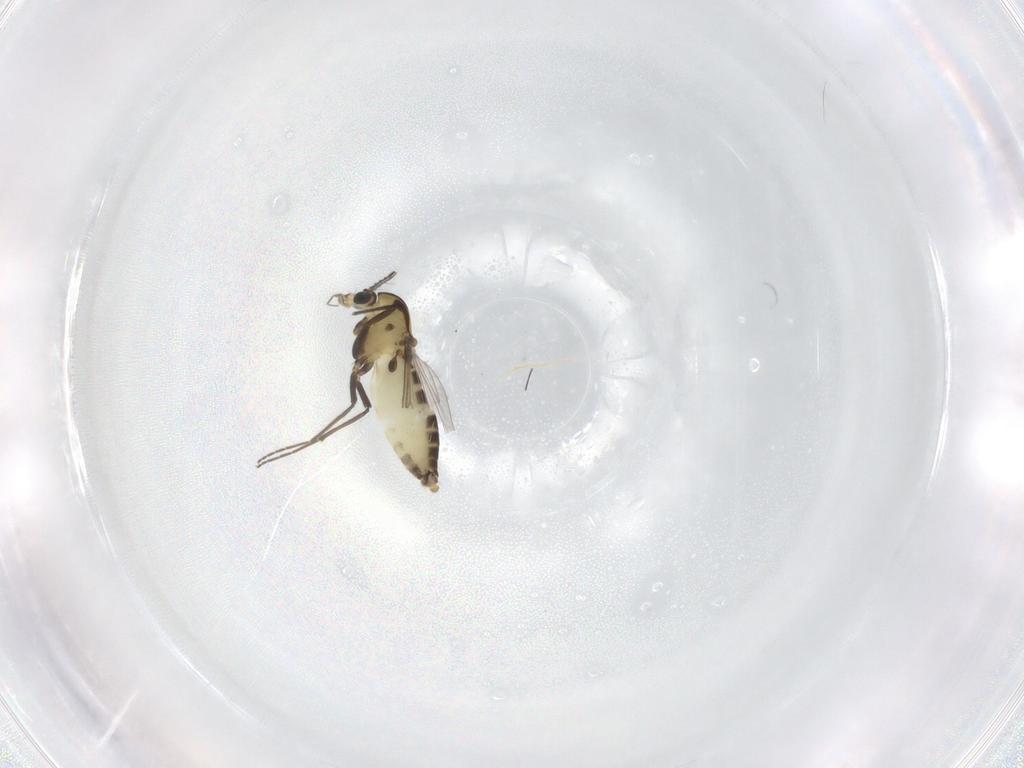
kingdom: Animalia
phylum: Arthropoda
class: Insecta
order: Diptera
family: Chironomidae
